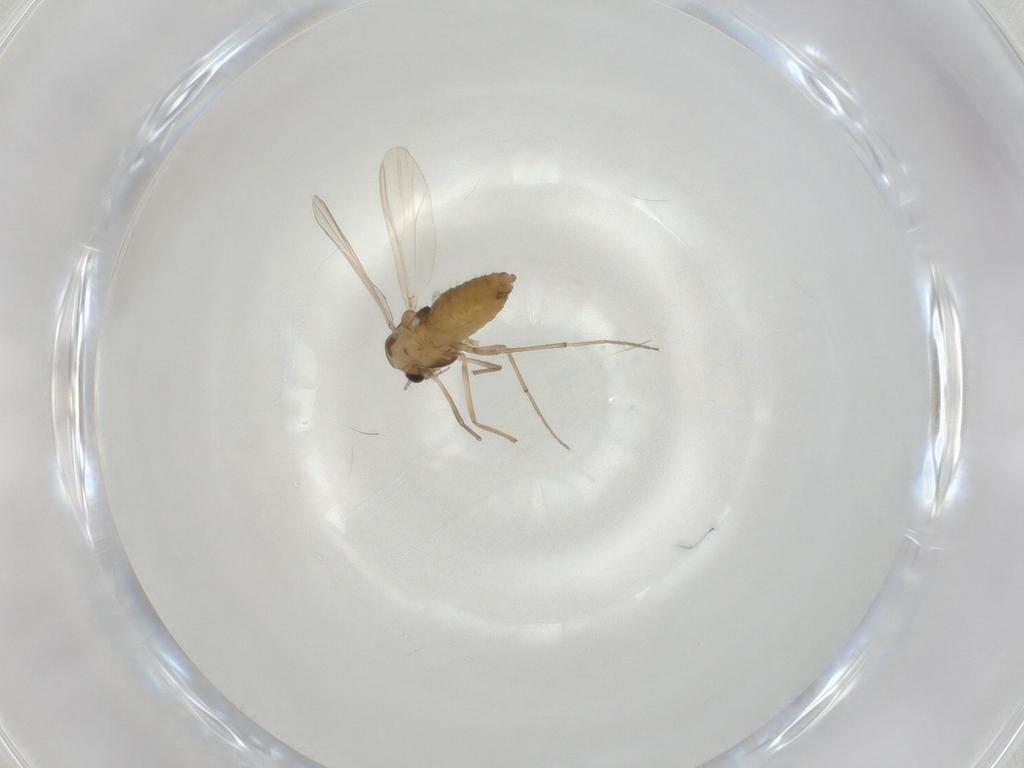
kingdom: Animalia
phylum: Arthropoda
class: Insecta
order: Diptera
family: Chironomidae
